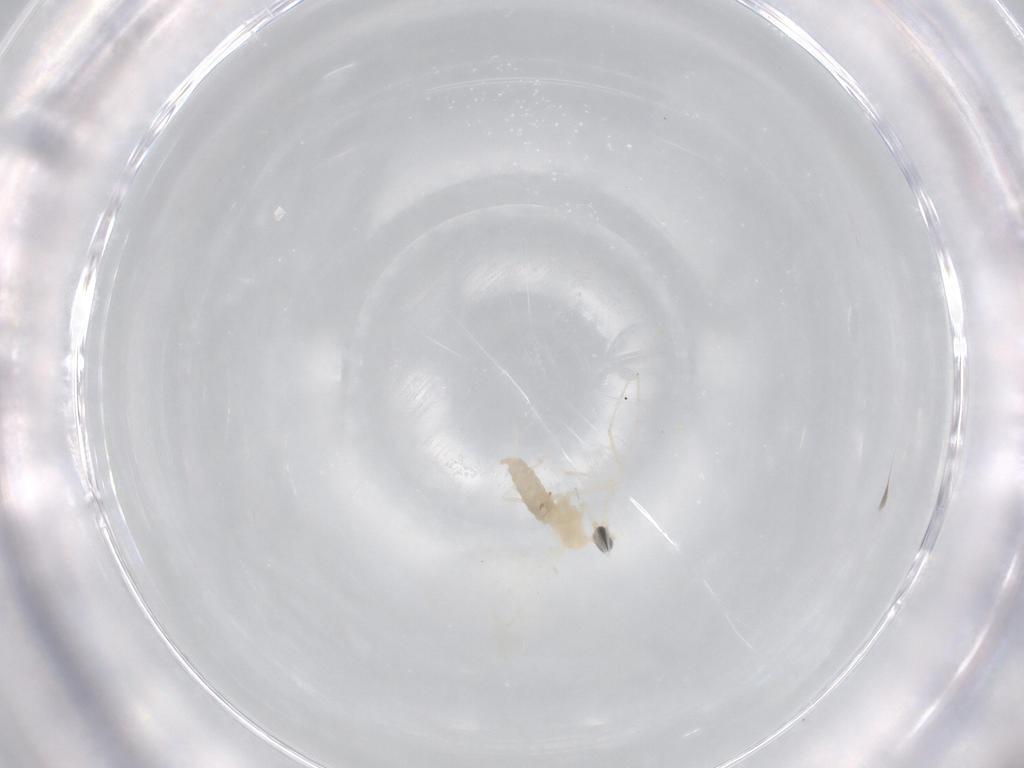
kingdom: Animalia
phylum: Arthropoda
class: Insecta
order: Diptera
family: Dolichopodidae
